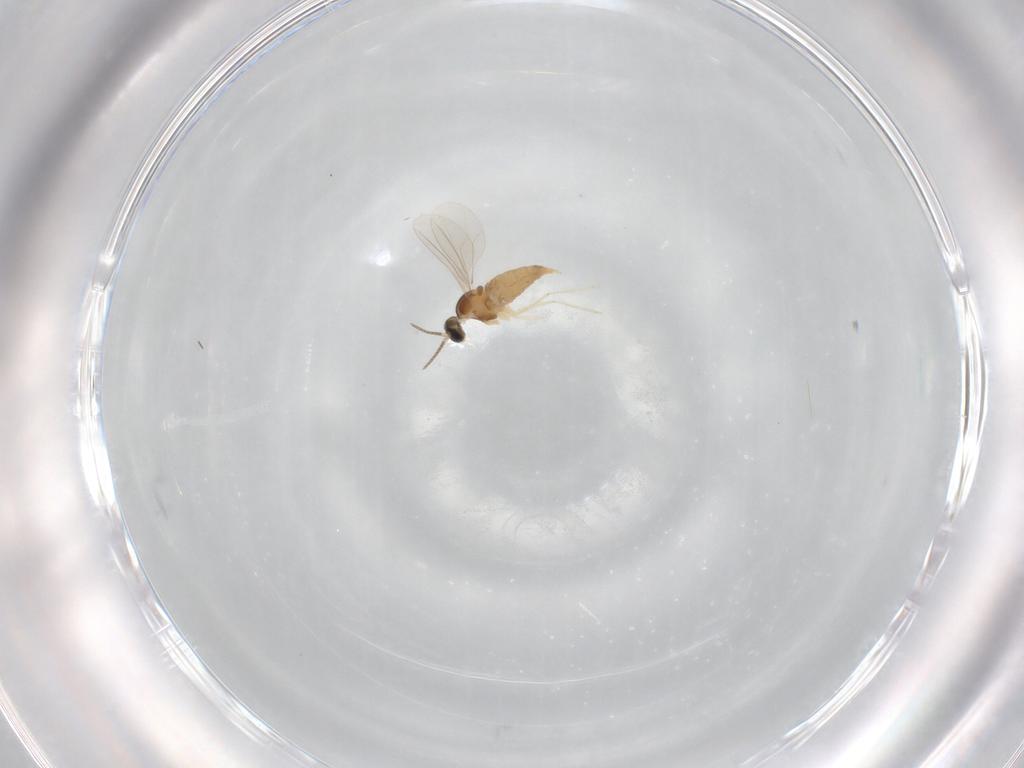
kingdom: Animalia
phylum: Arthropoda
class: Insecta
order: Diptera
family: Cecidomyiidae
